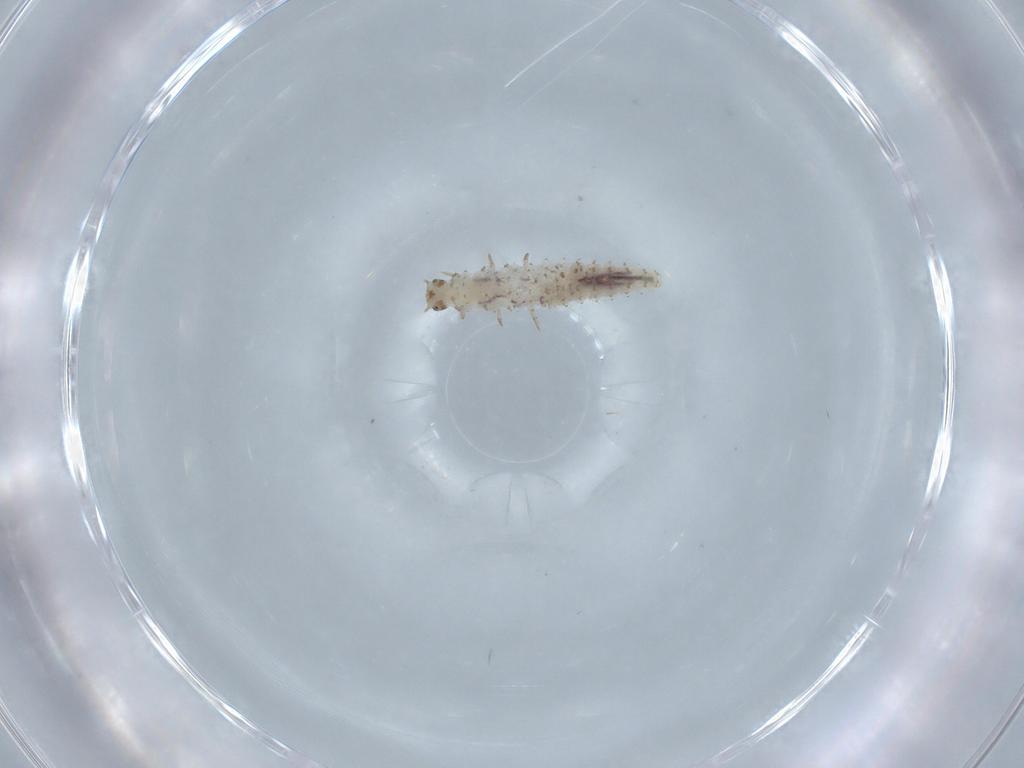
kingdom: Animalia
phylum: Arthropoda
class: Insecta
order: Coleoptera
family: Latridiidae
